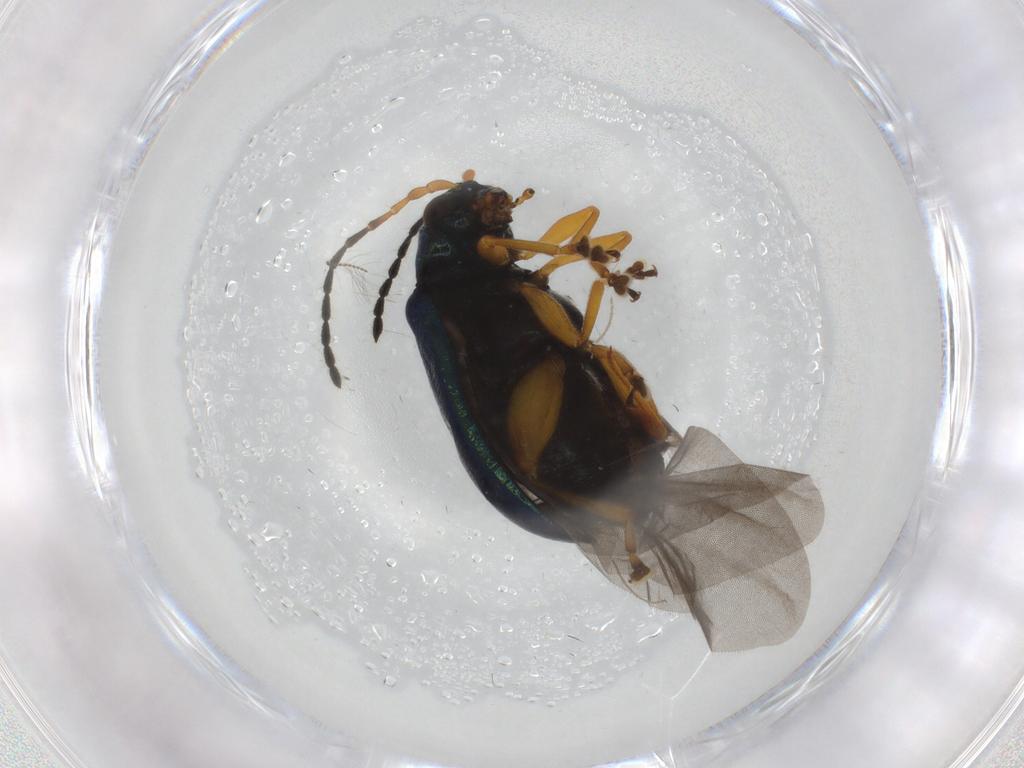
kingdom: Animalia
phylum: Arthropoda
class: Insecta
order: Coleoptera
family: Chrysomelidae
